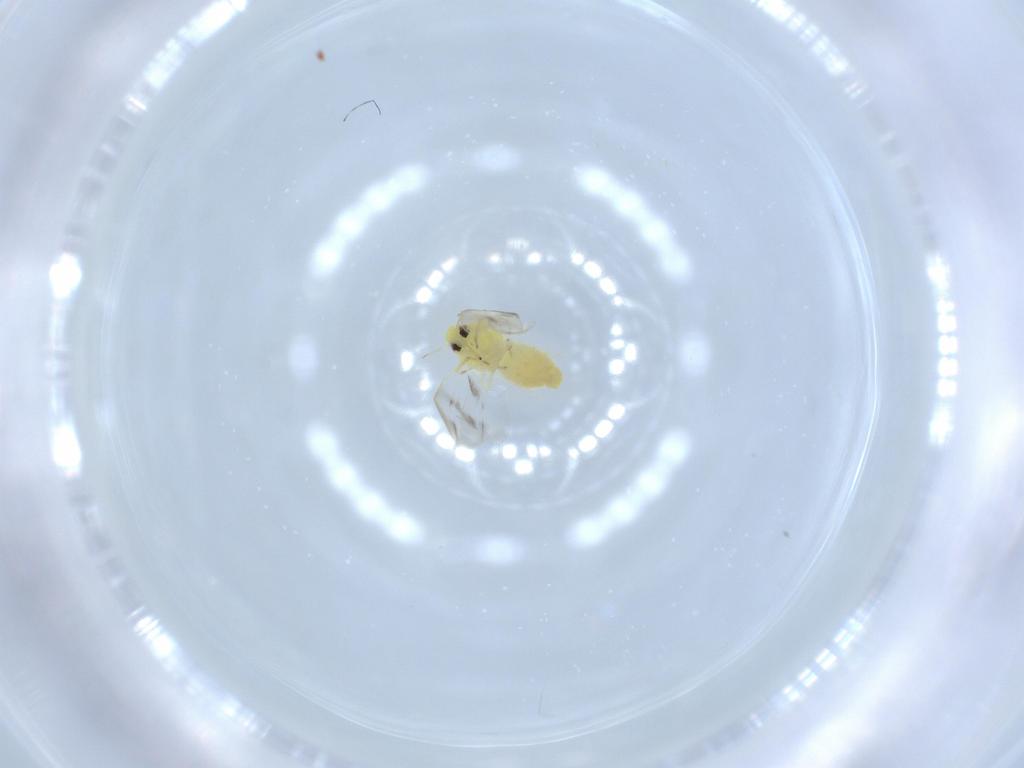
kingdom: Animalia
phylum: Arthropoda
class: Insecta
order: Hemiptera
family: Aleyrodidae
